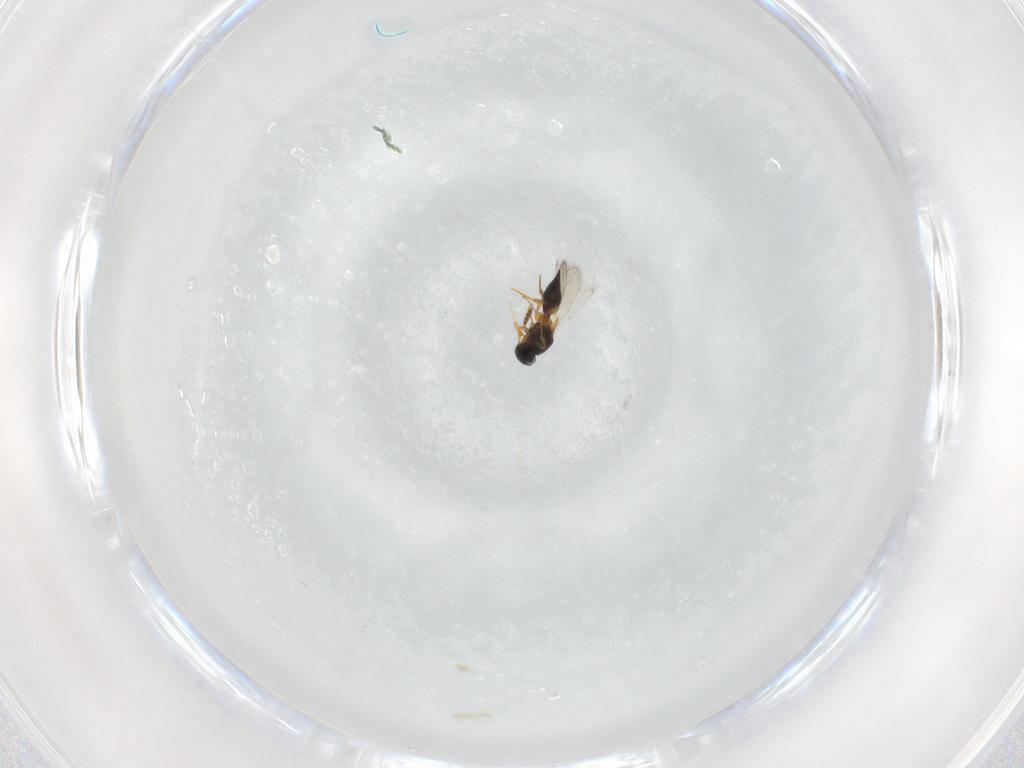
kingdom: Animalia
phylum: Arthropoda
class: Insecta
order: Hymenoptera
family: Platygastridae
